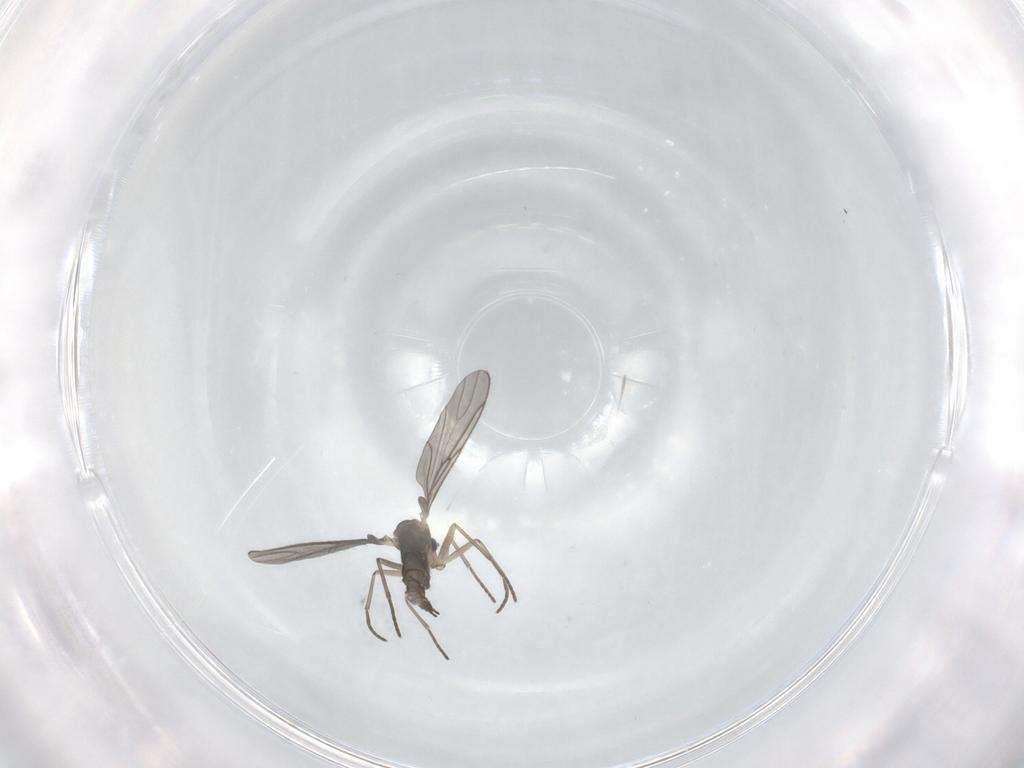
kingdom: Animalia
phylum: Arthropoda
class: Insecta
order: Diptera
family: Sciaridae
